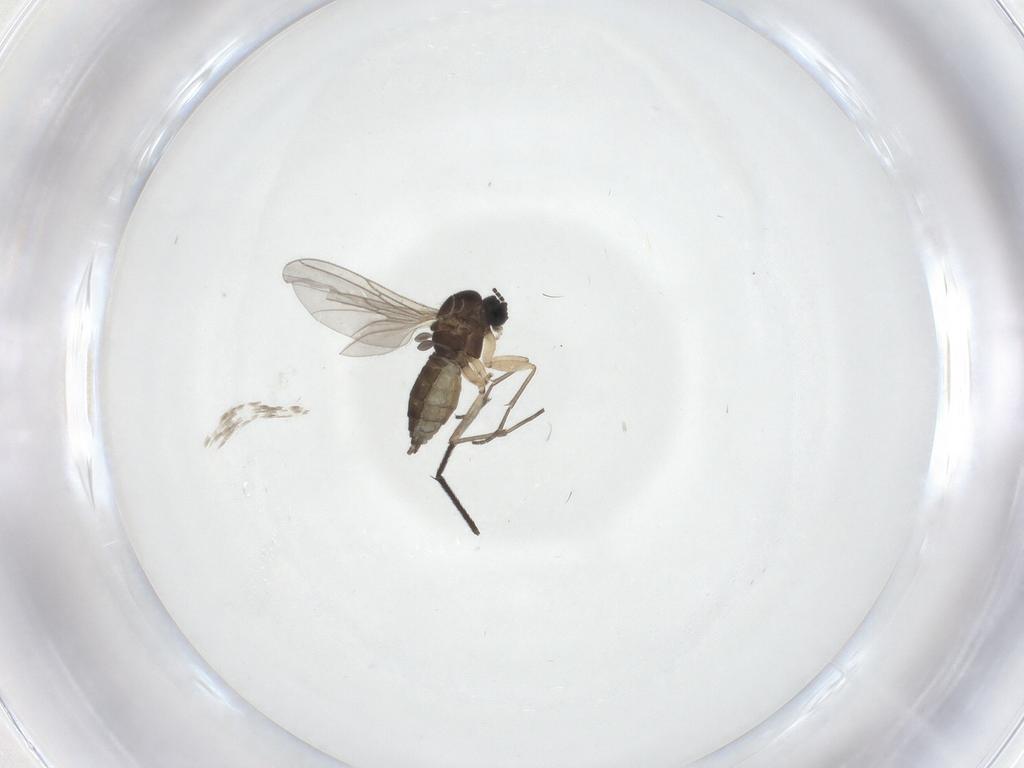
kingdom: Animalia
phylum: Arthropoda
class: Insecta
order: Diptera
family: Sciaridae
